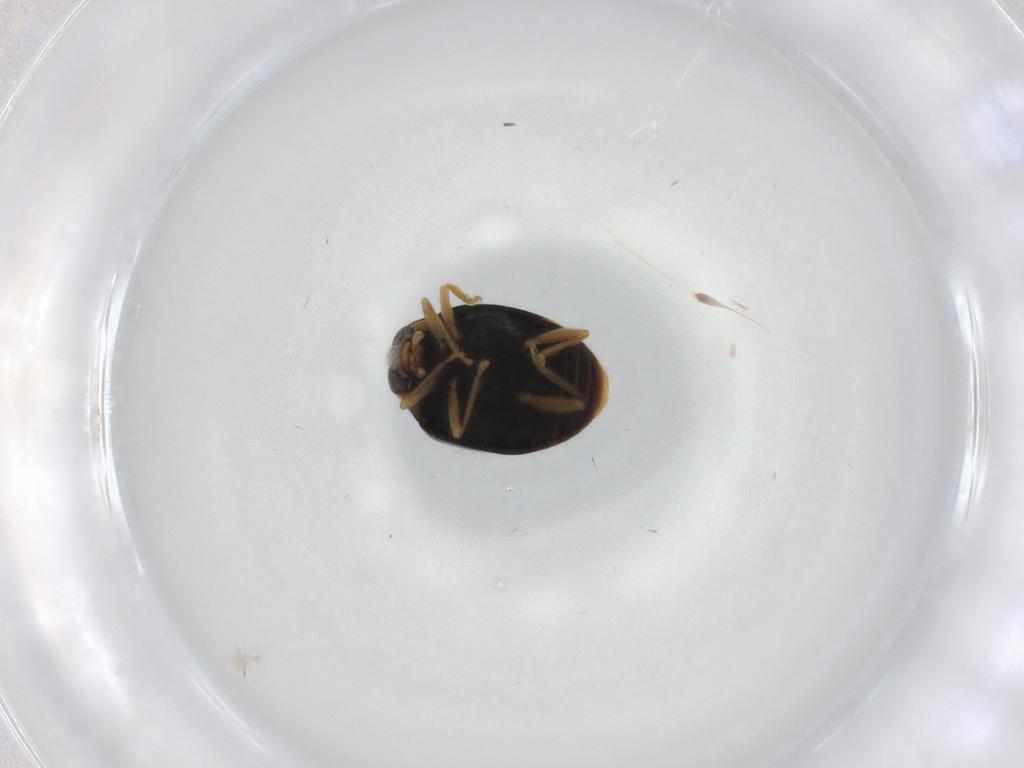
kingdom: Animalia
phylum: Arthropoda
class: Insecta
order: Coleoptera
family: Coccinellidae
